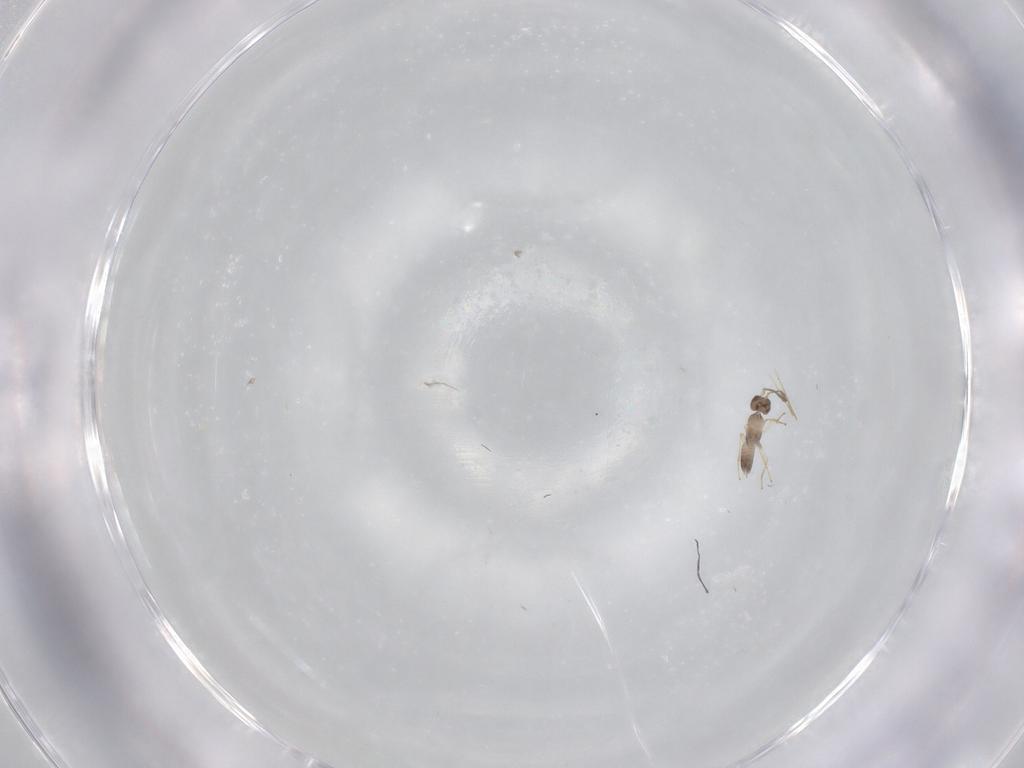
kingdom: Animalia
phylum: Arthropoda
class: Insecta
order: Hymenoptera
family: Mymaridae
